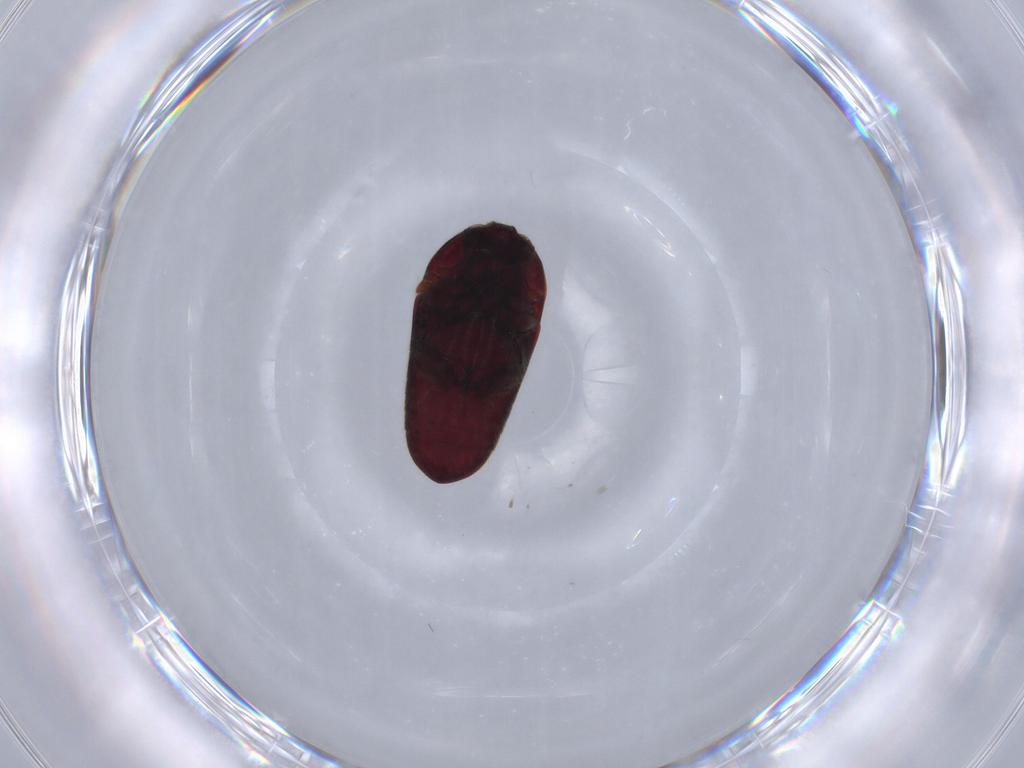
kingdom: Animalia
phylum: Arthropoda
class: Insecta
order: Coleoptera
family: Throscidae
